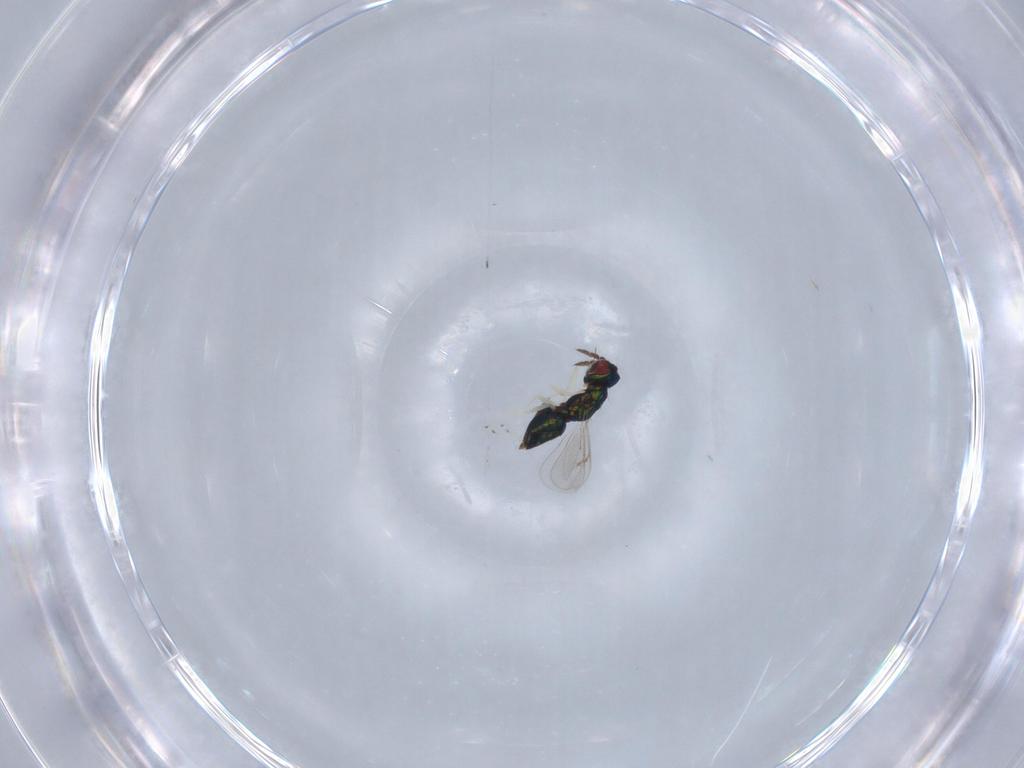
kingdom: Animalia
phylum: Arthropoda
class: Insecta
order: Hymenoptera
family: Eulophidae
